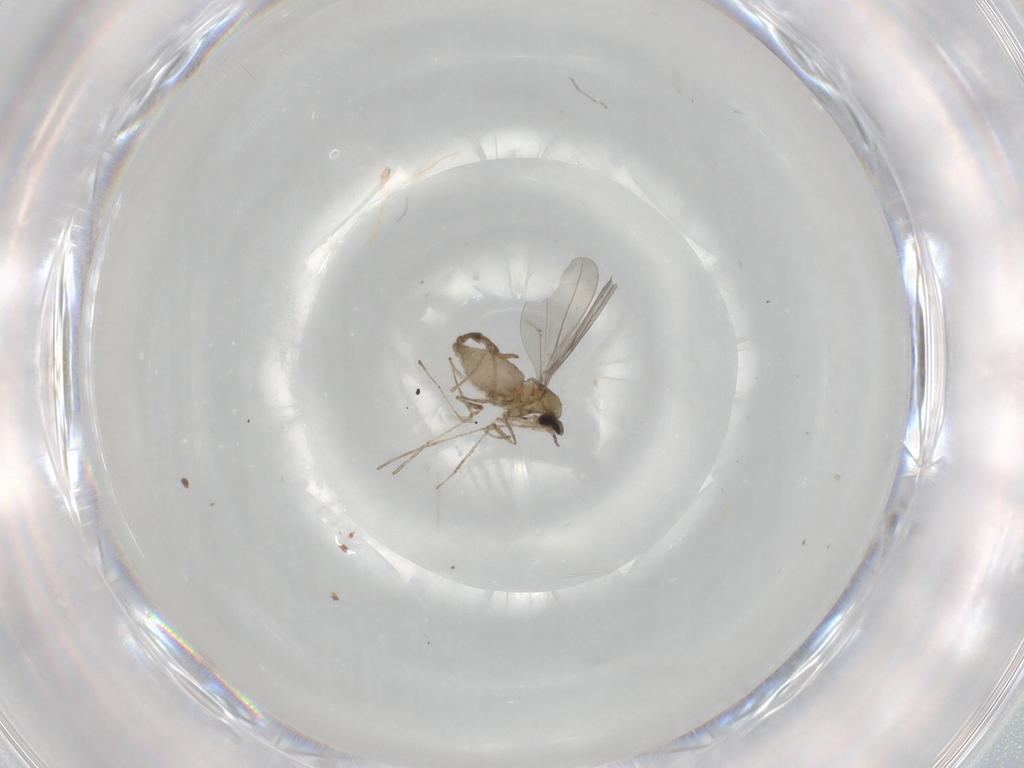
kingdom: Animalia
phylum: Arthropoda
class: Insecta
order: Diptera
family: Cecidomyiidae
